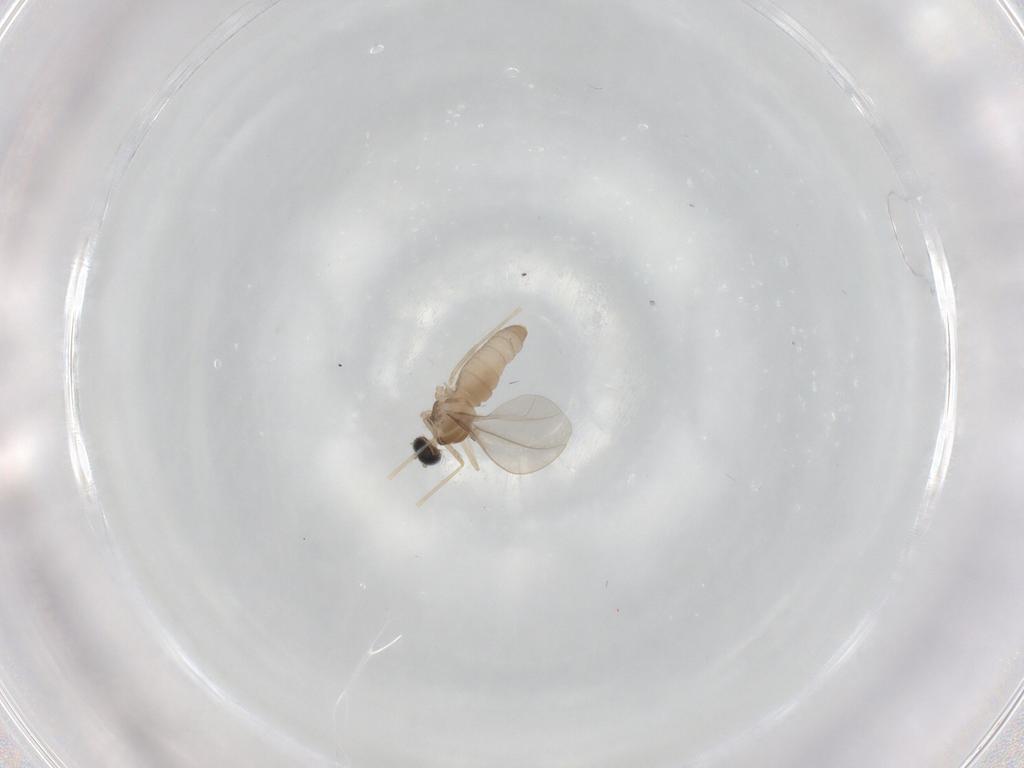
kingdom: Animalia
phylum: Arthropoda
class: Insecta
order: Diptera
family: Cecidomyiidae
